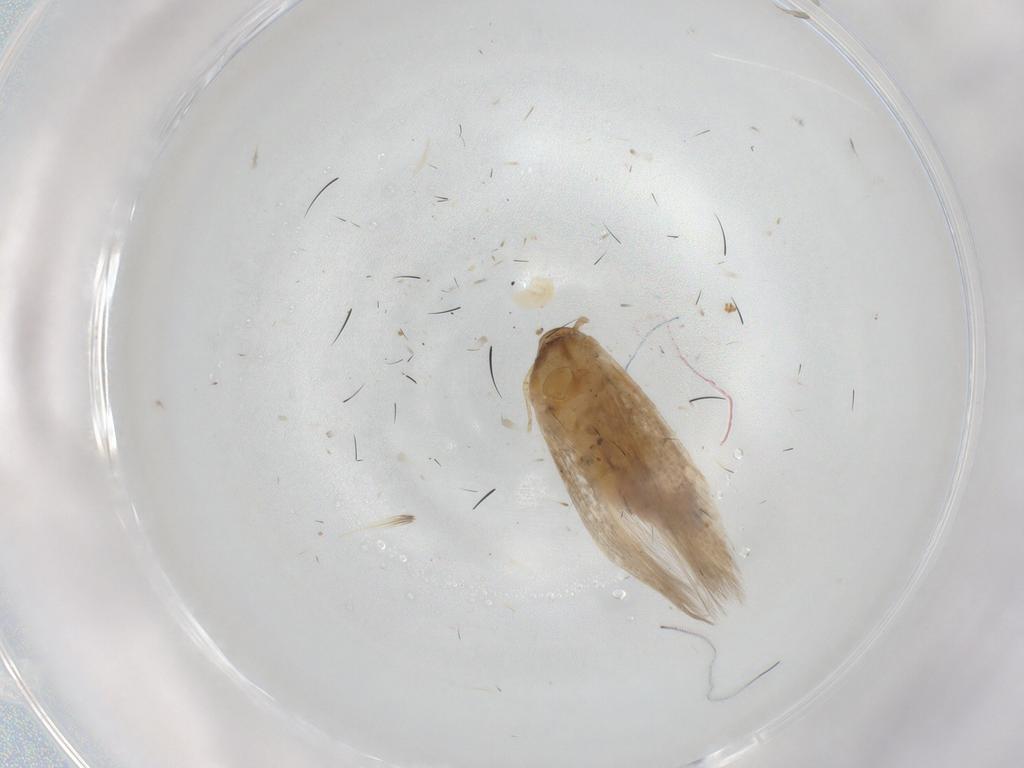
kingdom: Animalia
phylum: Arthropoda
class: Insecta
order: Lepidoptera
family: Cosmopterigidae
